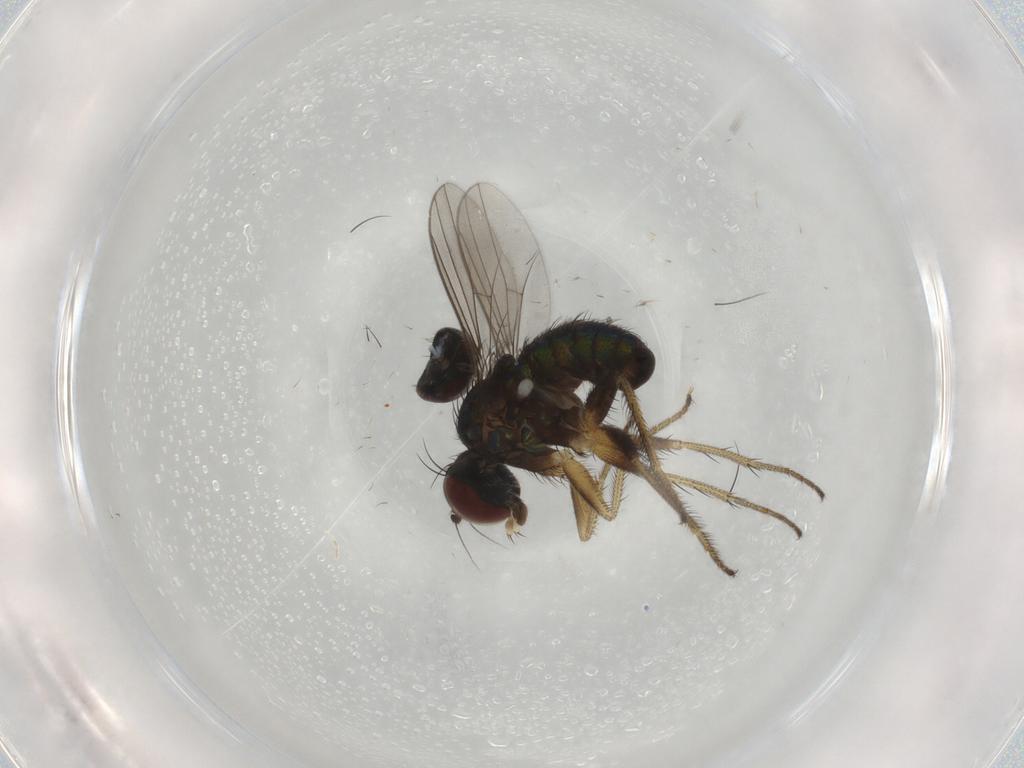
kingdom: Animalia
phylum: Arthropoda
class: Insecta
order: Diptera
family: Dolichopodidae
